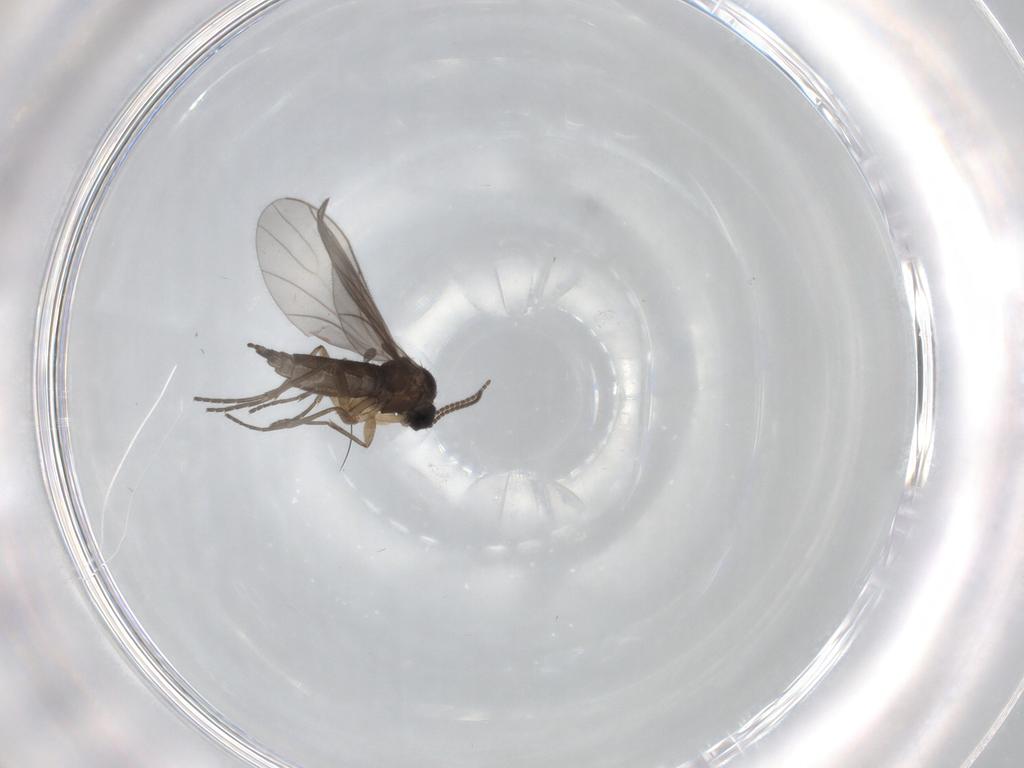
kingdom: Animalia
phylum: Arthropoda
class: Insecta
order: Diptera
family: Sciaridae
